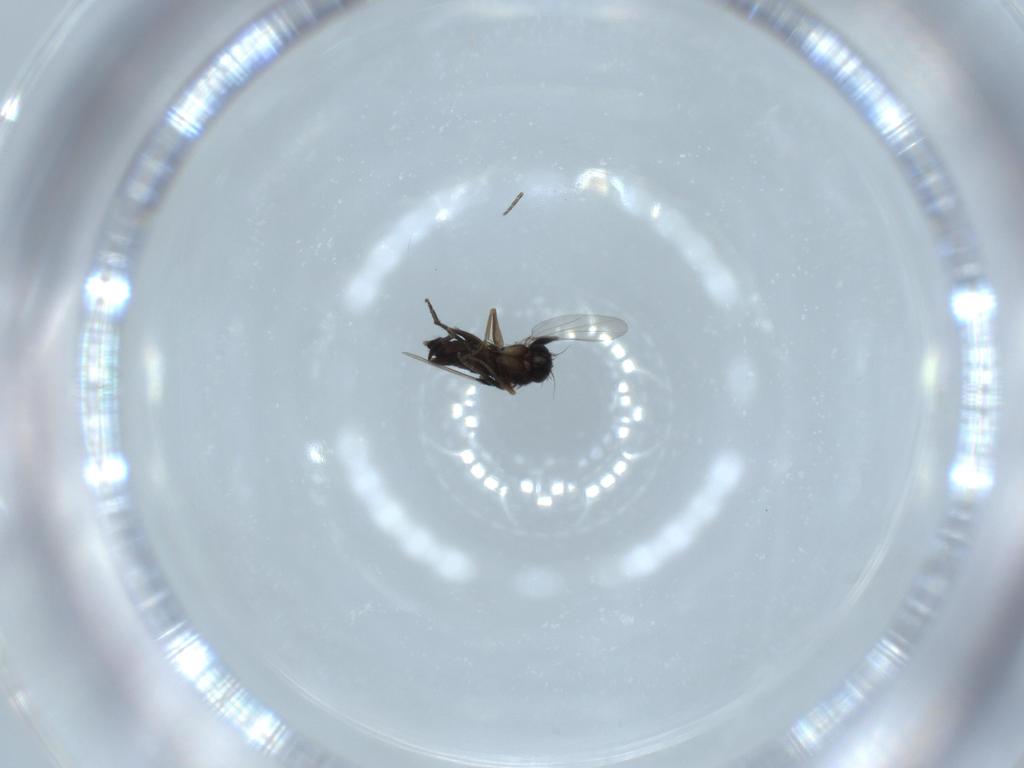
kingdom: Animalia
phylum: Arthropoda
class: Insecta
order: Diptera
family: Phoridae
